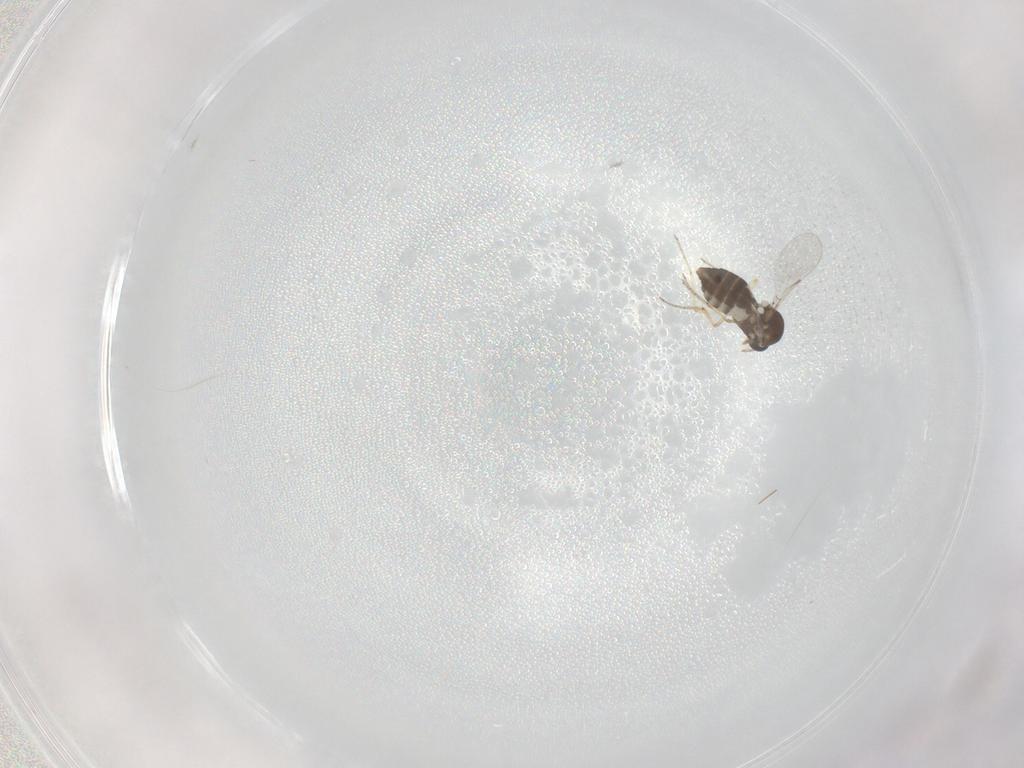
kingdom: Animalia
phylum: Arthropoda
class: Insecta
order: Diptera
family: Ceratopogonidae
